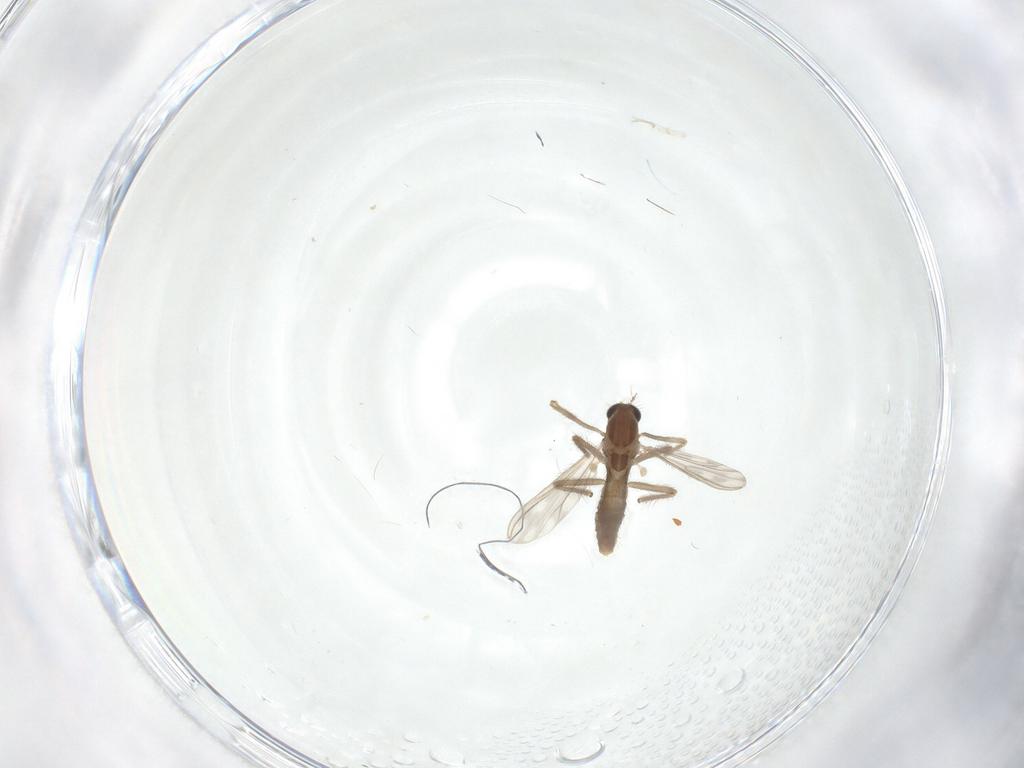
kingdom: Animalia
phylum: Arthropoda
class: Insecta
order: Diptera
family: Chironomidae
